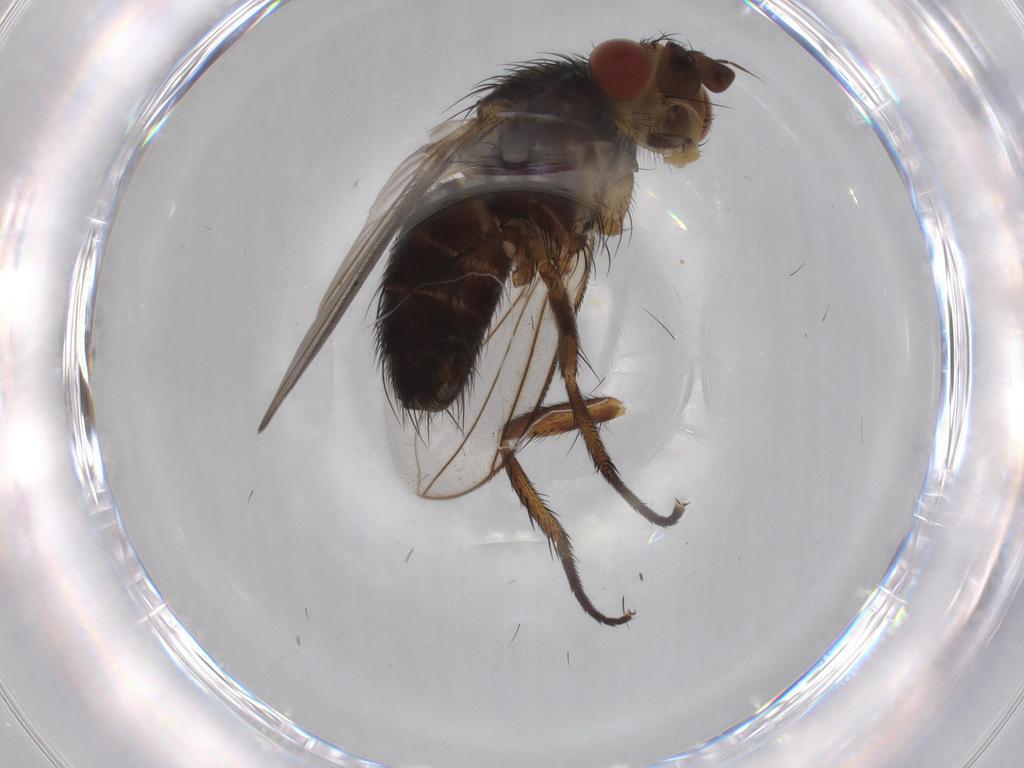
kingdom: Animalia
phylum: Arthropoda
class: Insecta
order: Diptera
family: Tachinidae
